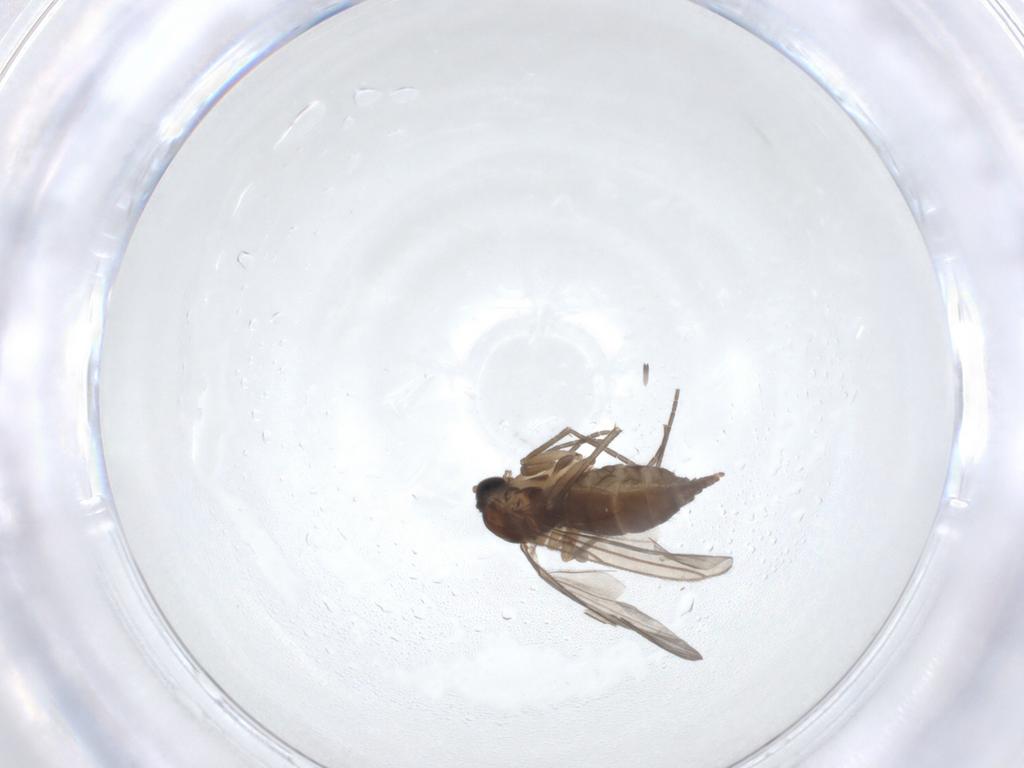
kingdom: Animalia
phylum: Arthropoda
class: Insecta
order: Diptera
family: Sciaridae
